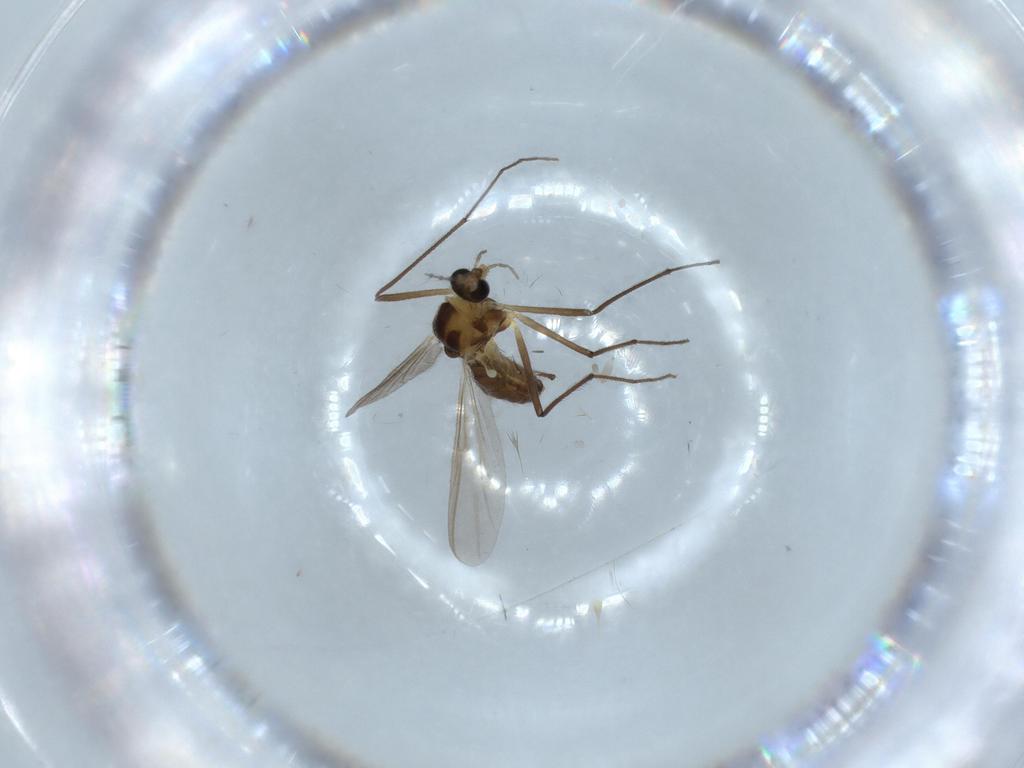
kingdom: Animalia
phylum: Arthropoda
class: Insecta
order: Diptera
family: Chironomidae
